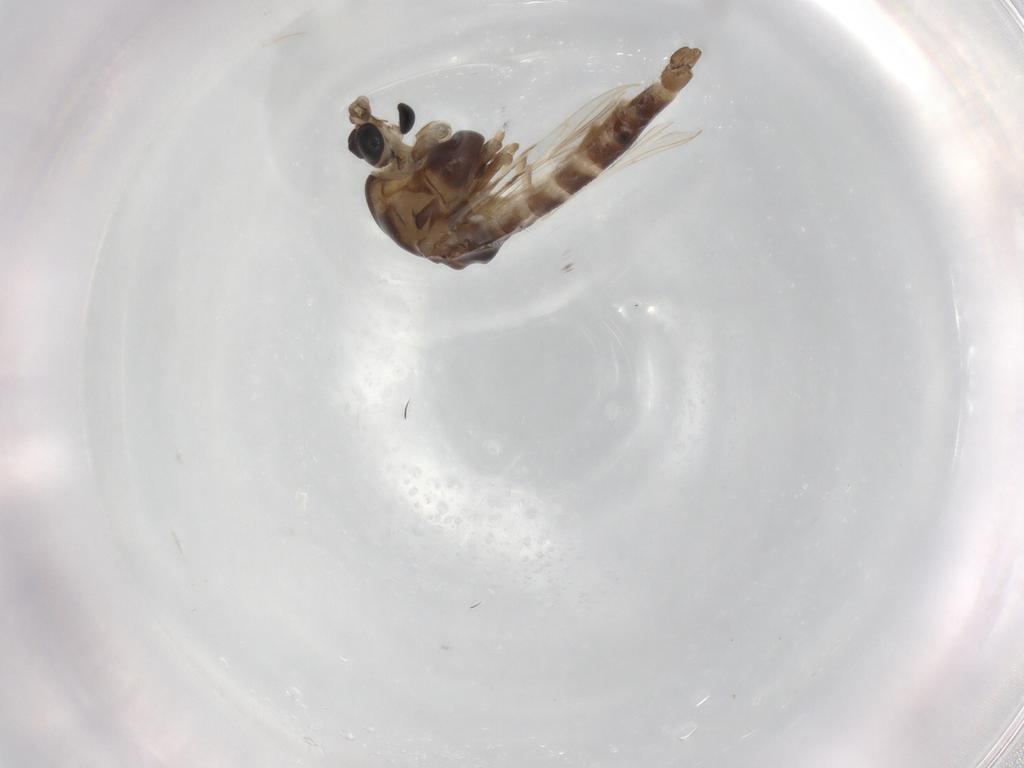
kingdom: Animalia
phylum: Arthropoda
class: Insecta
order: Diptera
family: Chironomidae
